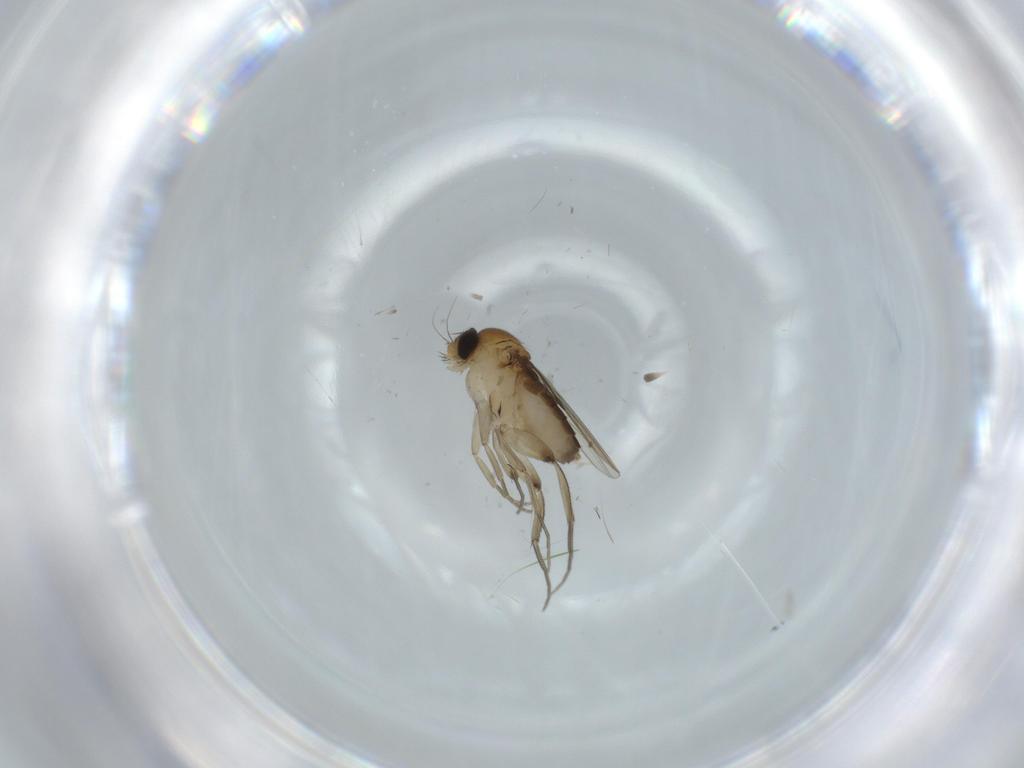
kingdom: Animalia
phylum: Arthropoda
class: Insecta
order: Diptera
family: Phoridae
